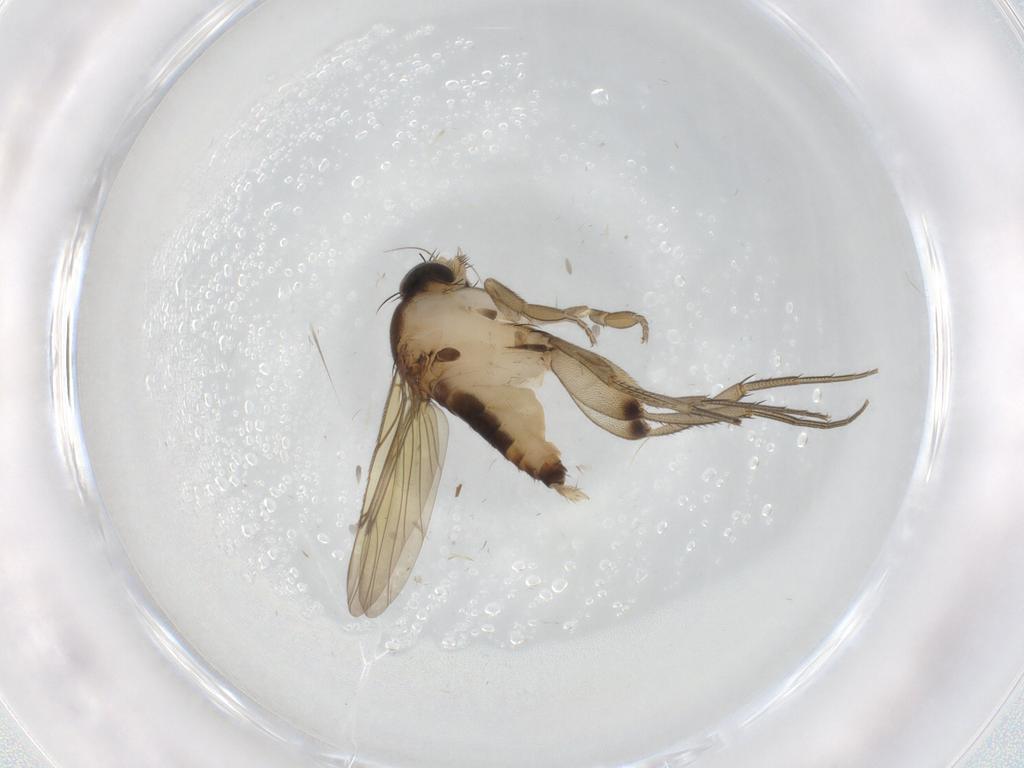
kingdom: Animalia
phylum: Arthropoda
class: Insecta
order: Diptera
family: Phoridae
